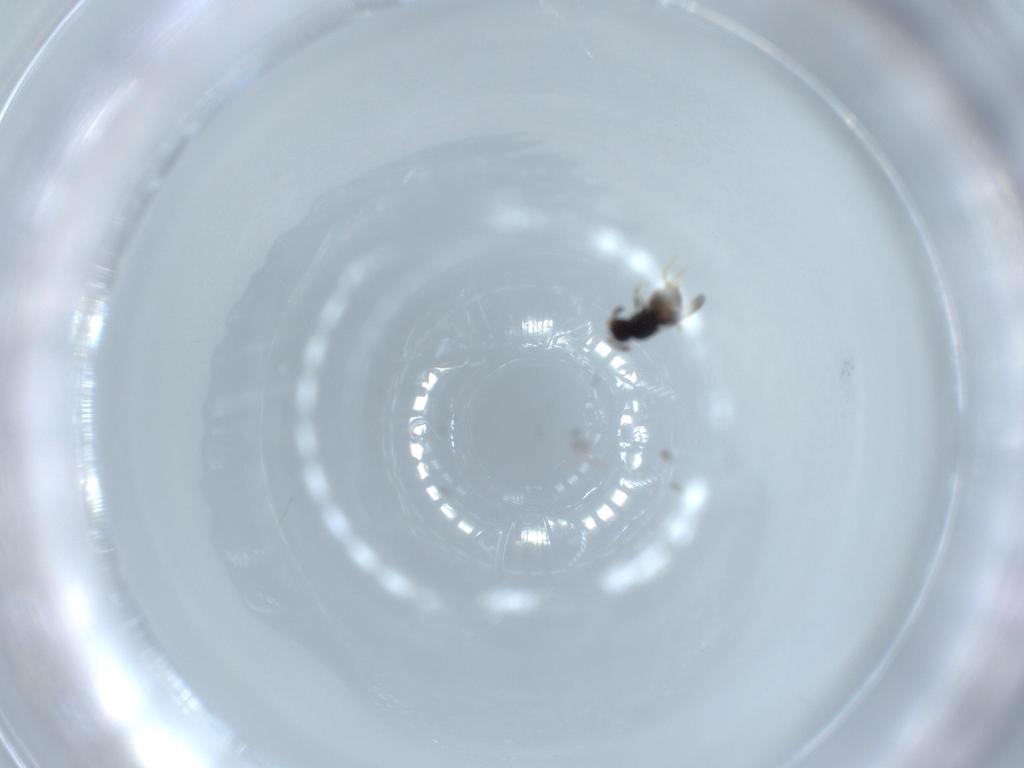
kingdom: Animalia
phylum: Arthropoda
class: Insecta
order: Hymenoptera
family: Ceraphronidae
